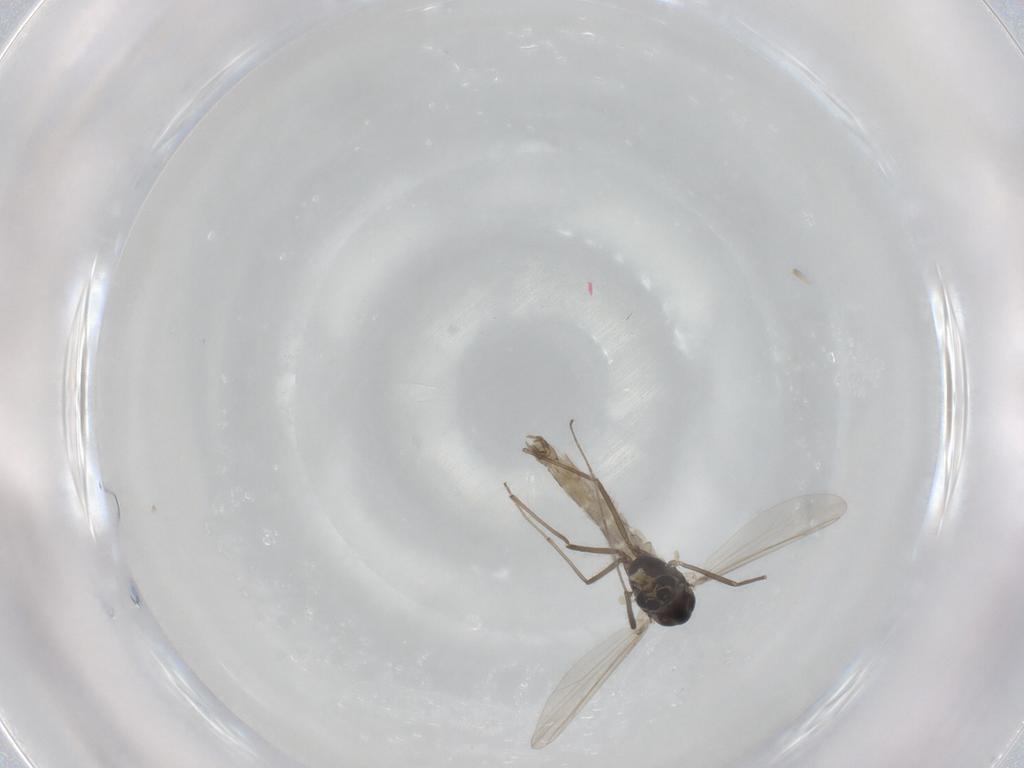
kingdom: Animalia
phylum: Arthropoda
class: Insecta
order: Diptera
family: Chironomidae
